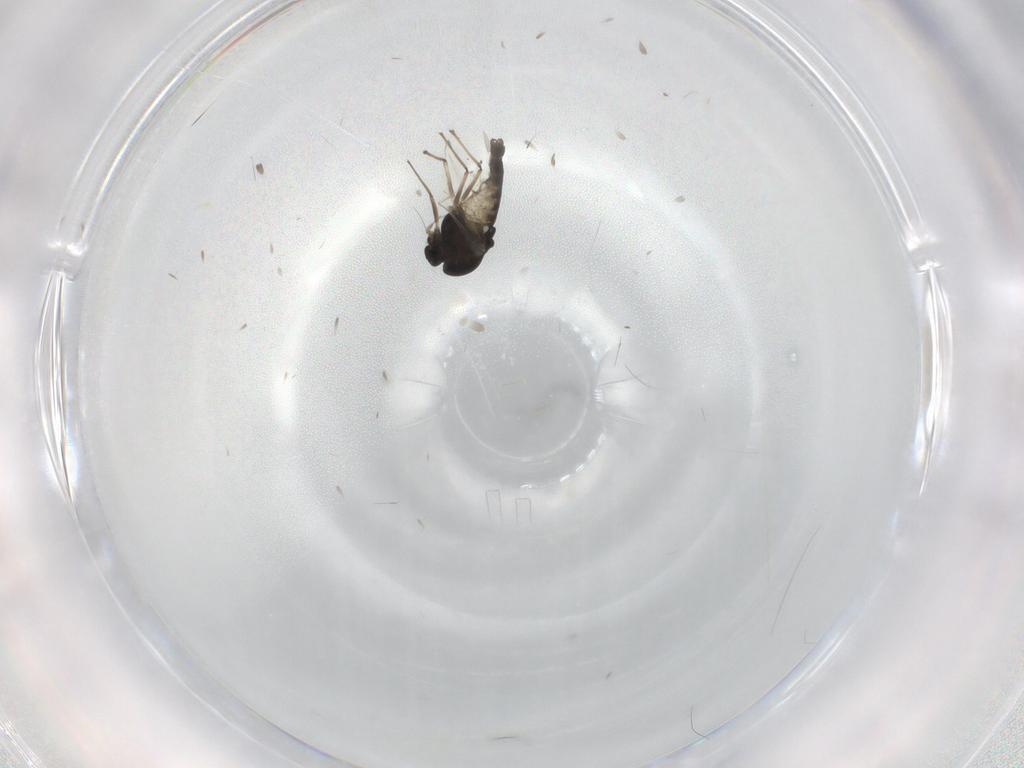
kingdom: Animalia
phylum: Arthropoda
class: Insecta
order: Diptera
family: Chironomidae
